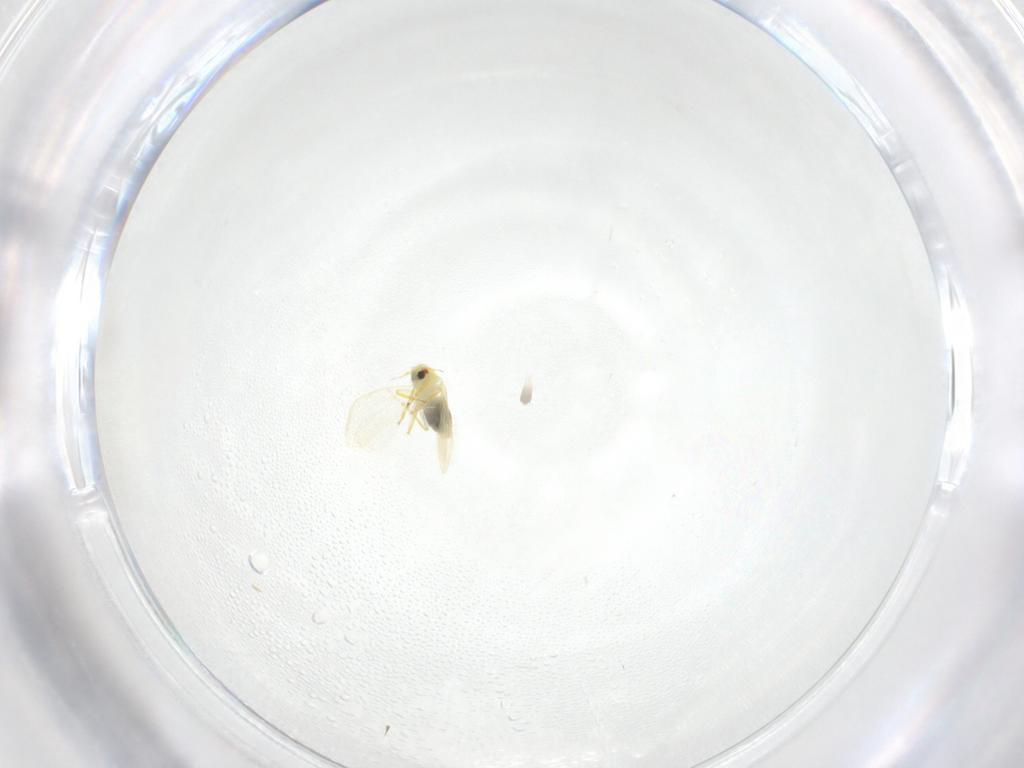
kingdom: Animalia
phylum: Arthropoda
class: Insecta
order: Hemiptera
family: Aleyrodidae
